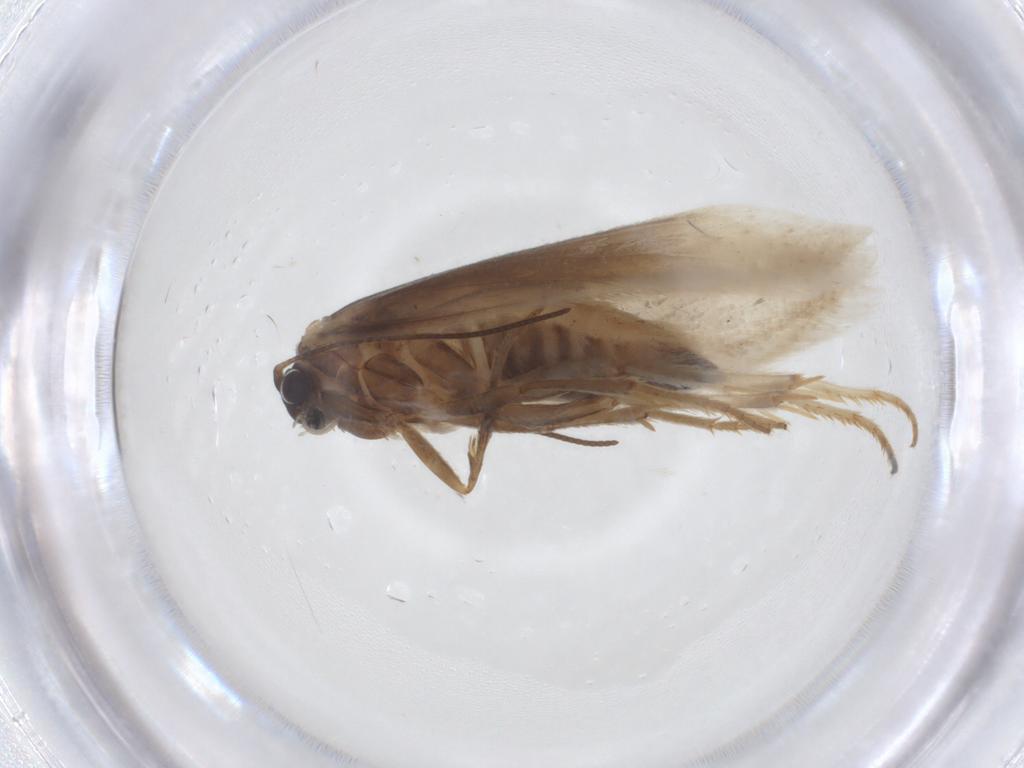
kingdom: Animalia
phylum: Arthropoda
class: Insecta
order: Lepidoptera
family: Tridentaformidae
